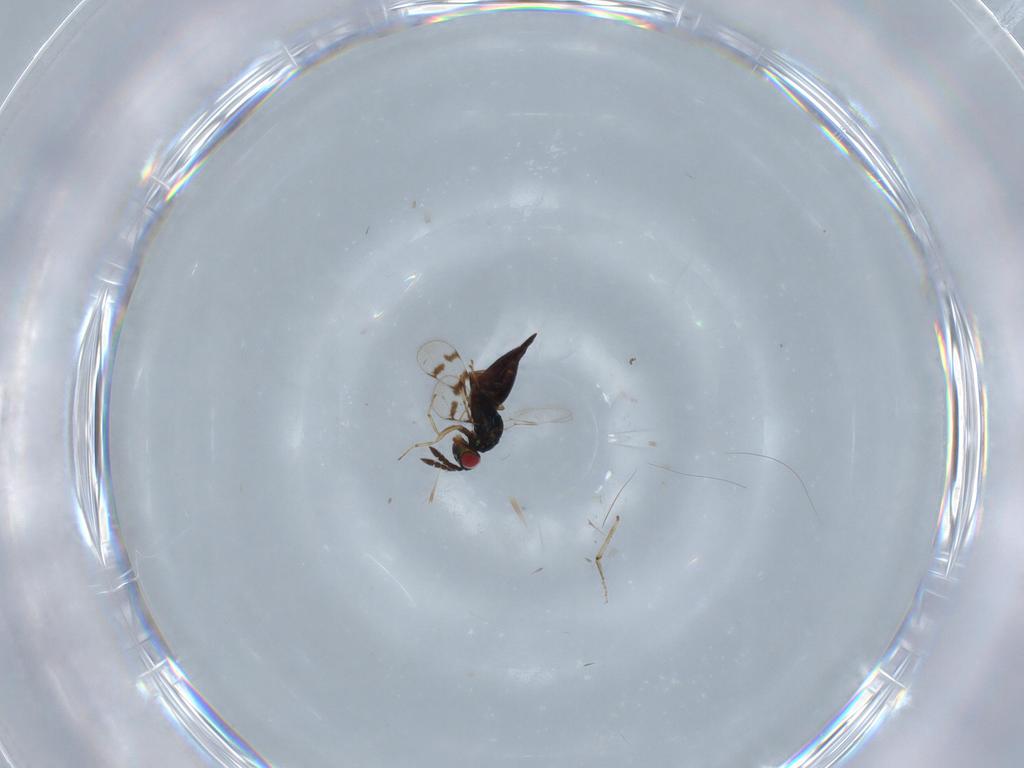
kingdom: Animalia
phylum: Arthropoda
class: Insecta
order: Hymenoptera
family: Eulophidae
